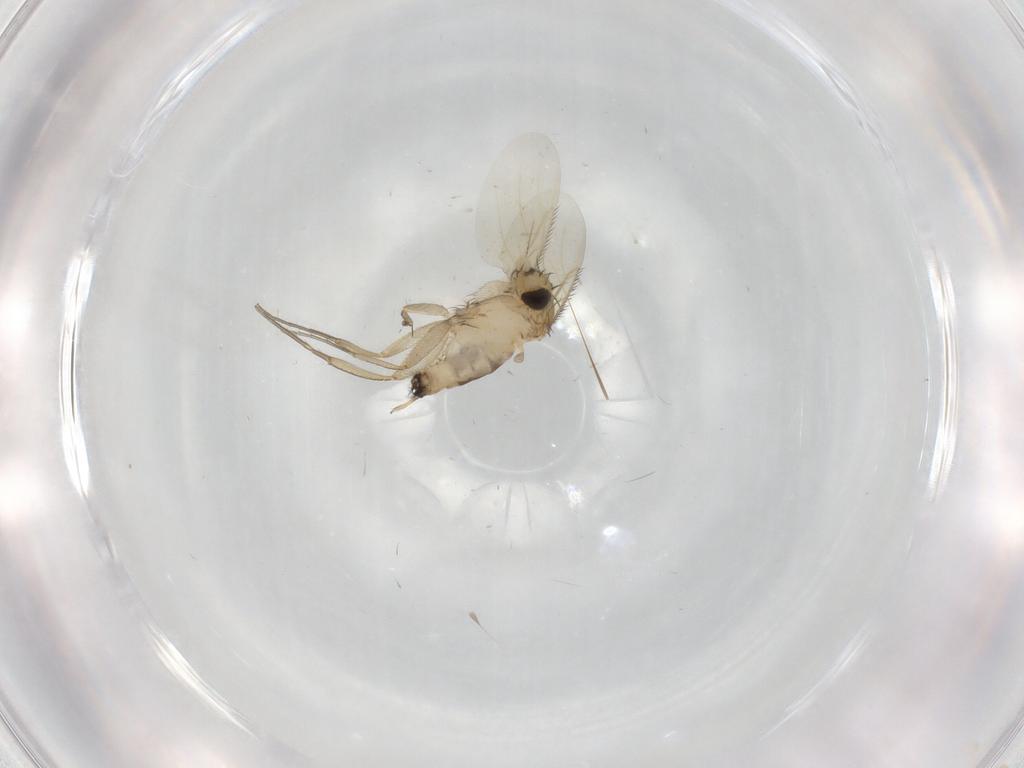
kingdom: Animalia
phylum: Arthropoda
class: Insecta
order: Diptera
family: Phoridae
